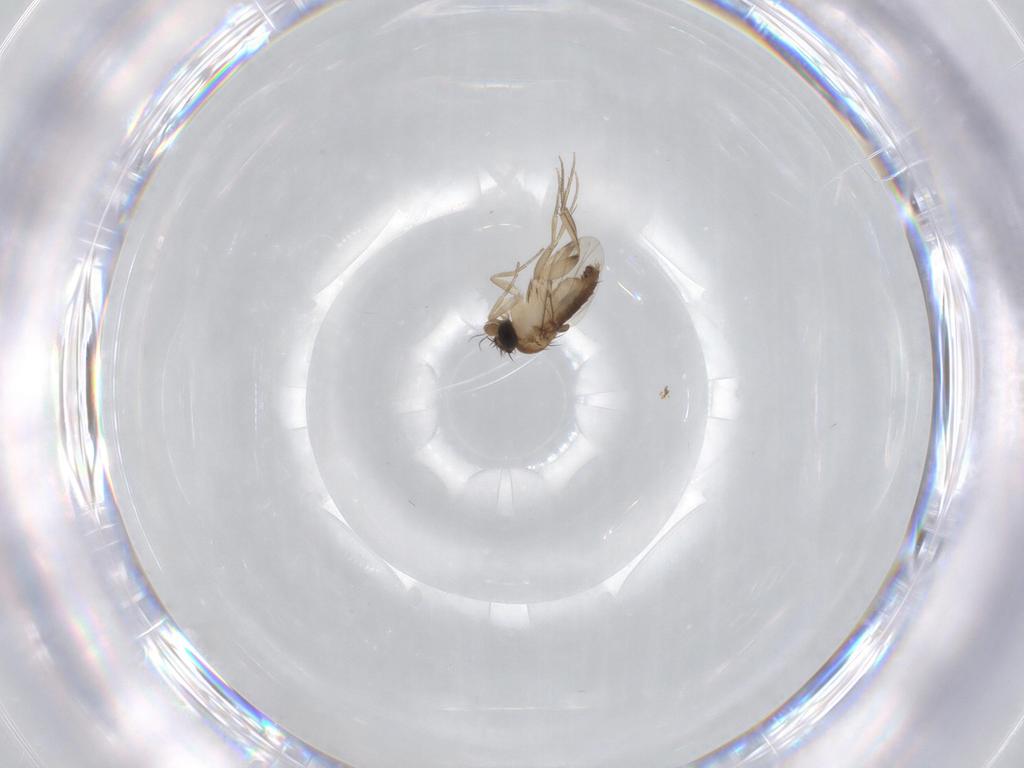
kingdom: Animalia
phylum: Arthropoda
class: Insecta
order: Diptera
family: Phoridae
